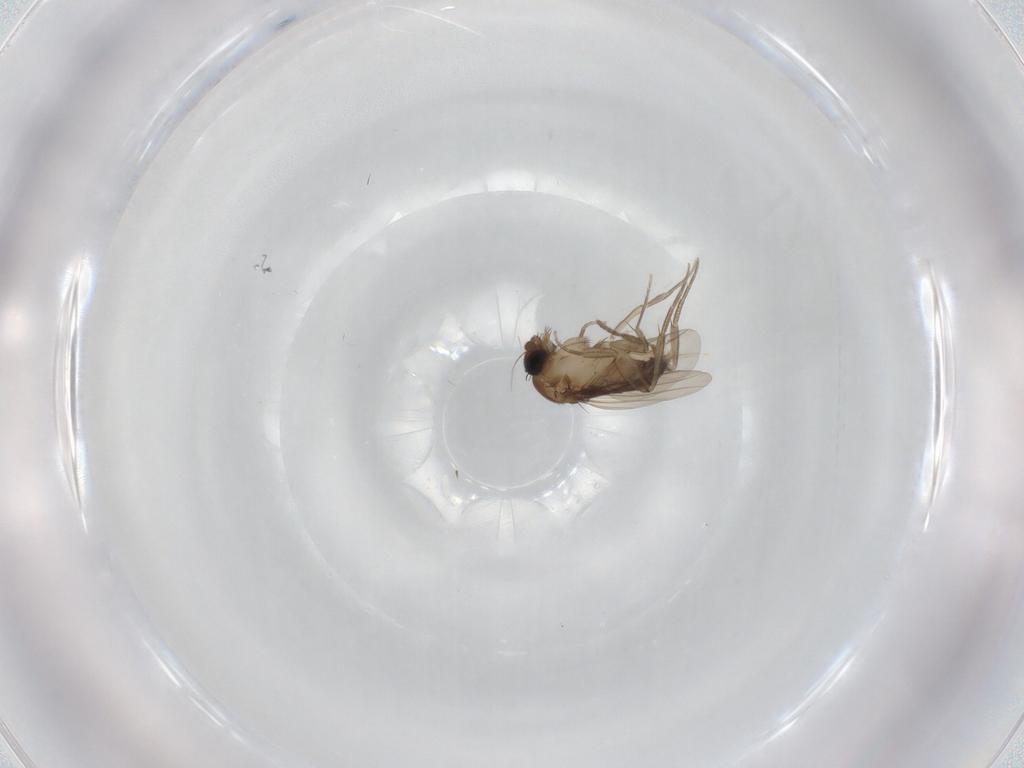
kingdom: Animalia
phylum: Arthropoda
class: Insecta
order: Diptera
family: Phoridae
